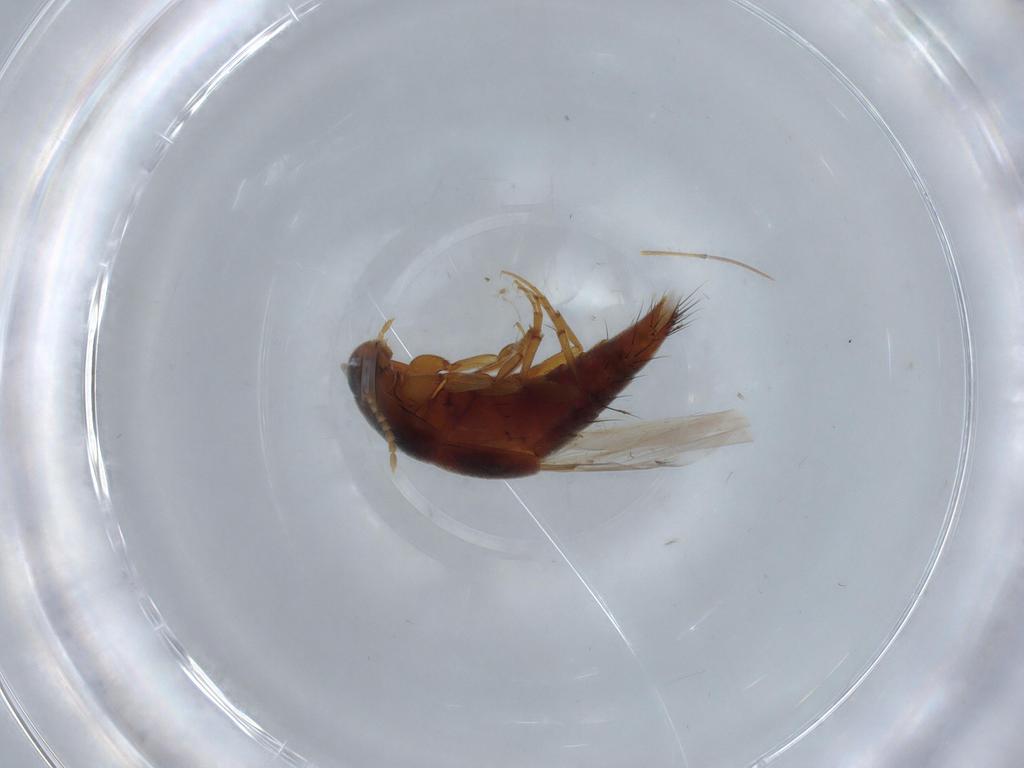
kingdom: Animalia
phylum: Arthropoda
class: Insecta
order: Coleoptera
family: Staphylinidae
